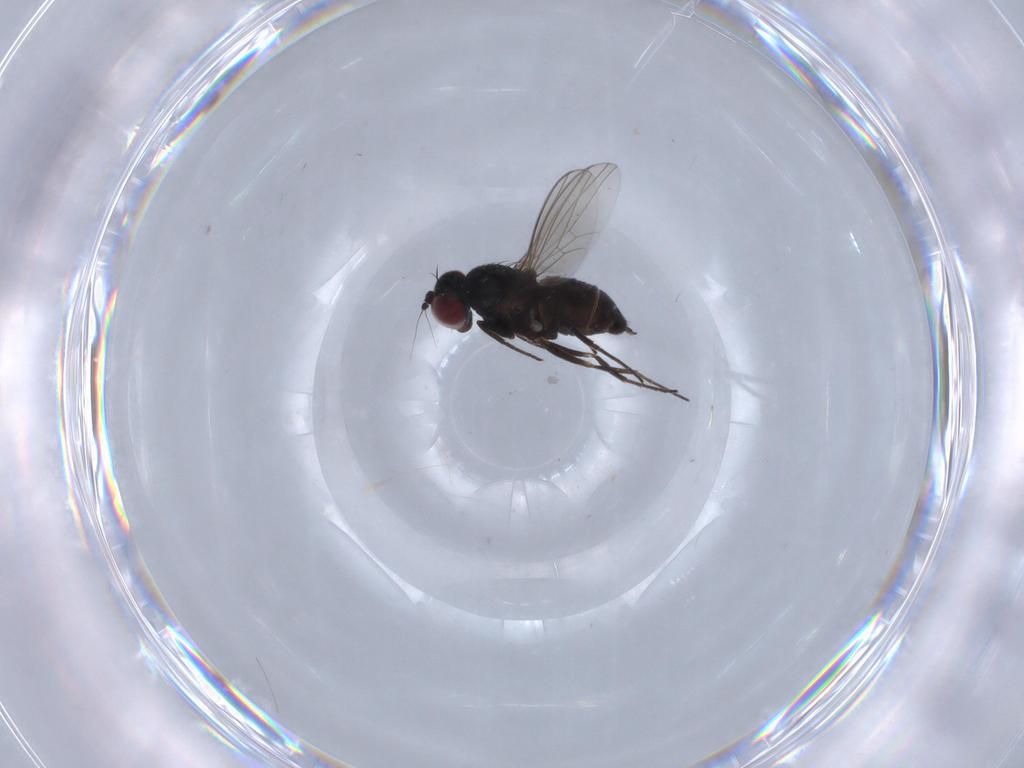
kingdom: Animalia
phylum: Arthropoda
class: Insecta
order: Diptera
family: Dolichopodidae
